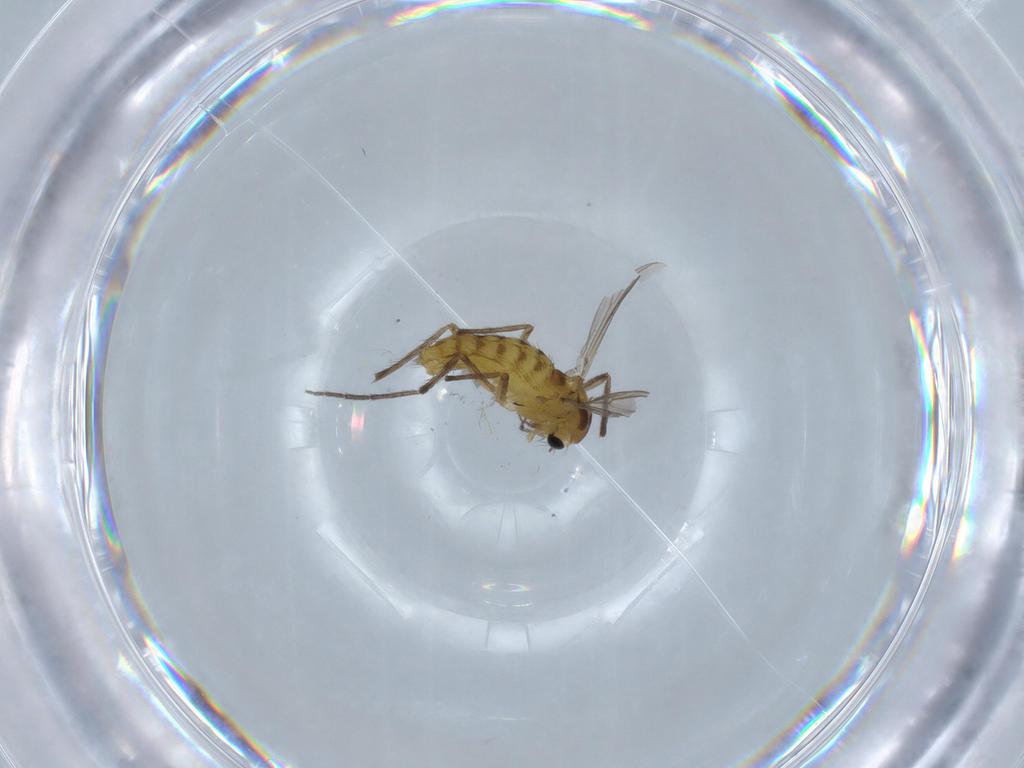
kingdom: Animalia
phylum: Arthropoda
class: Insecta
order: Diptera
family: Chironomidae
